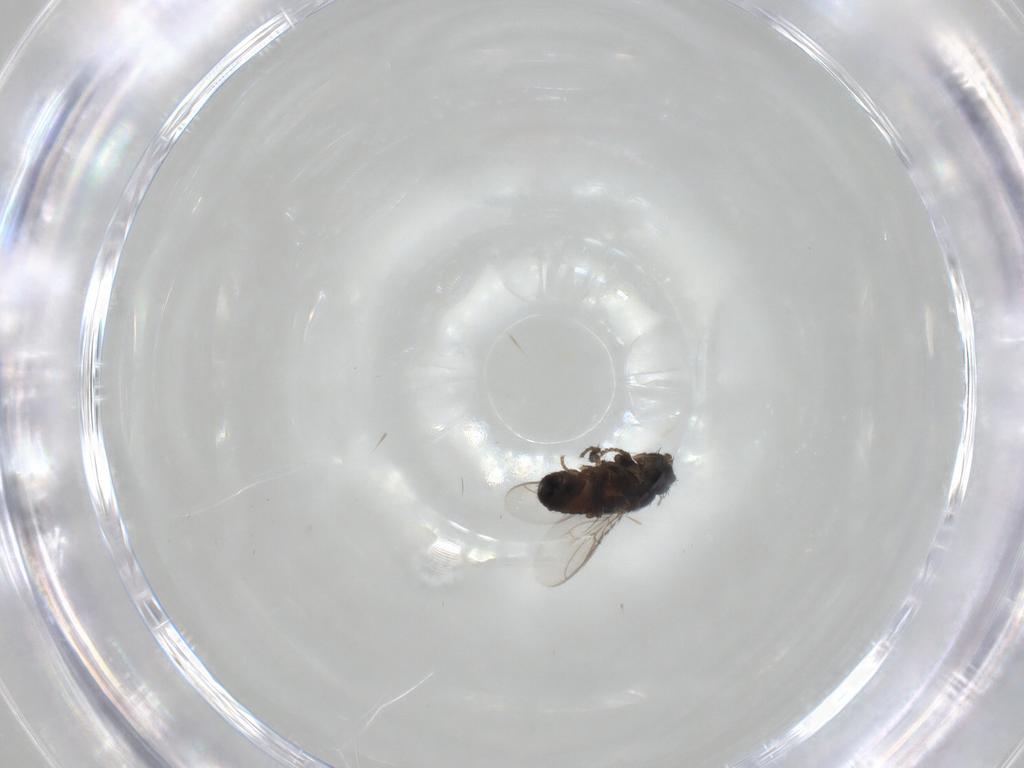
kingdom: Animalia
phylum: Arthropoda
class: Insecta
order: Diptera
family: Sphaeroceridae
